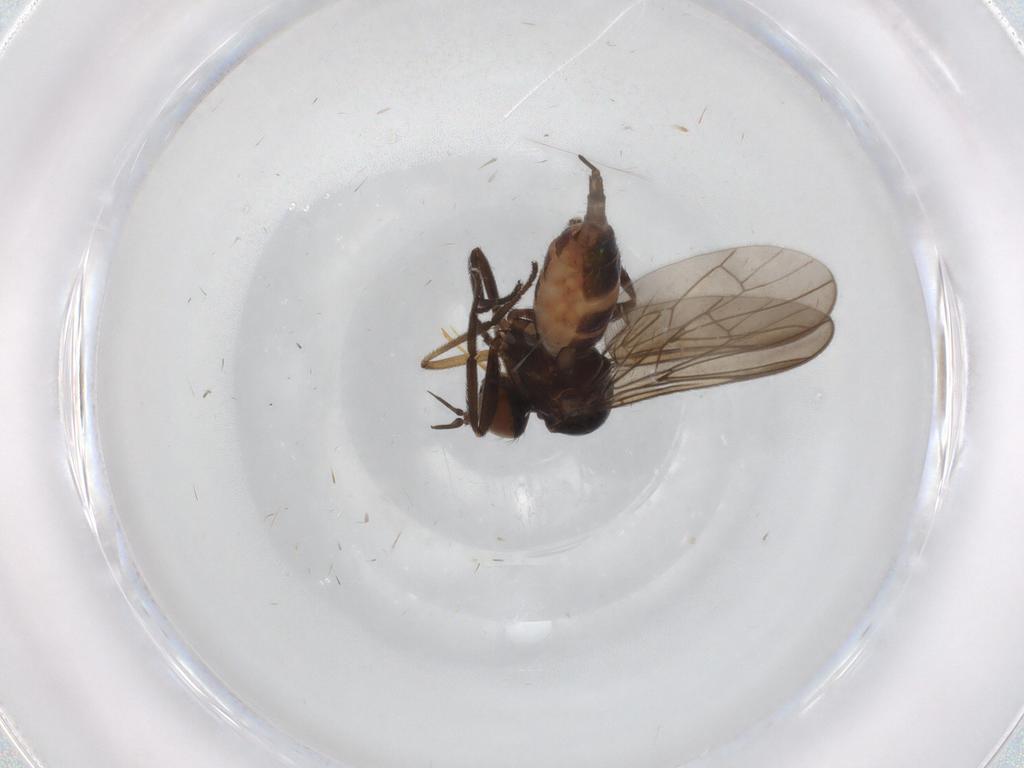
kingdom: Animalia
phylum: Arthropoda
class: Insecta
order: Diptera
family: Empididae
